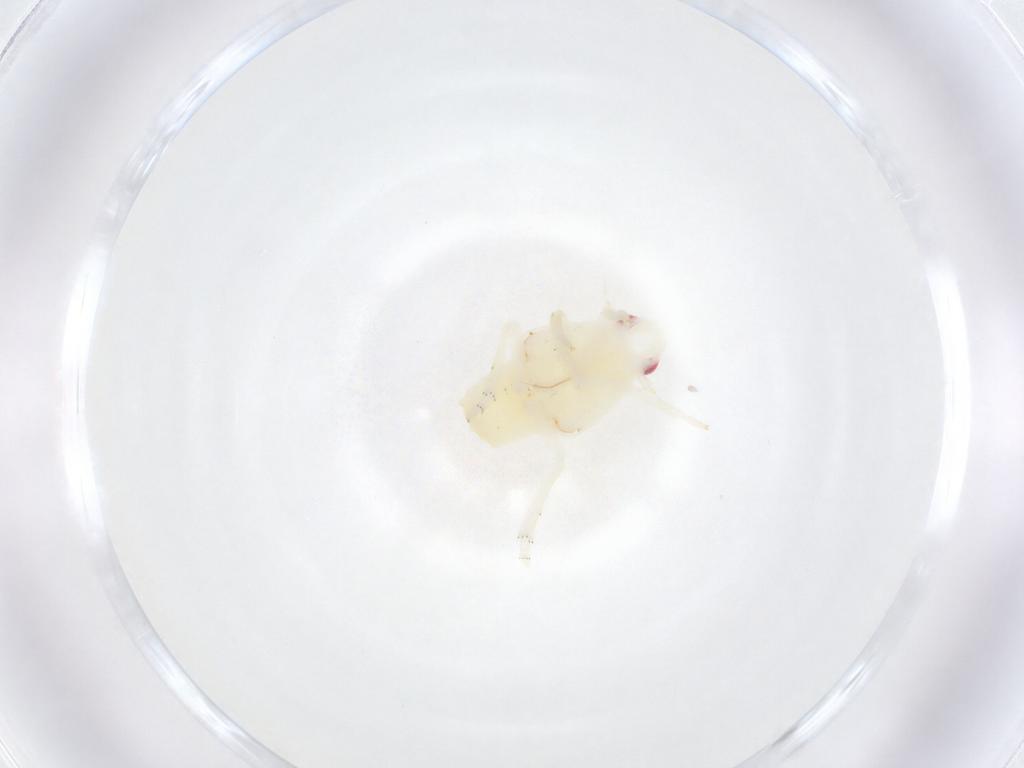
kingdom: Animalia
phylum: Arthropoda
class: Insecta
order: Hemiptera
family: Flatidae
